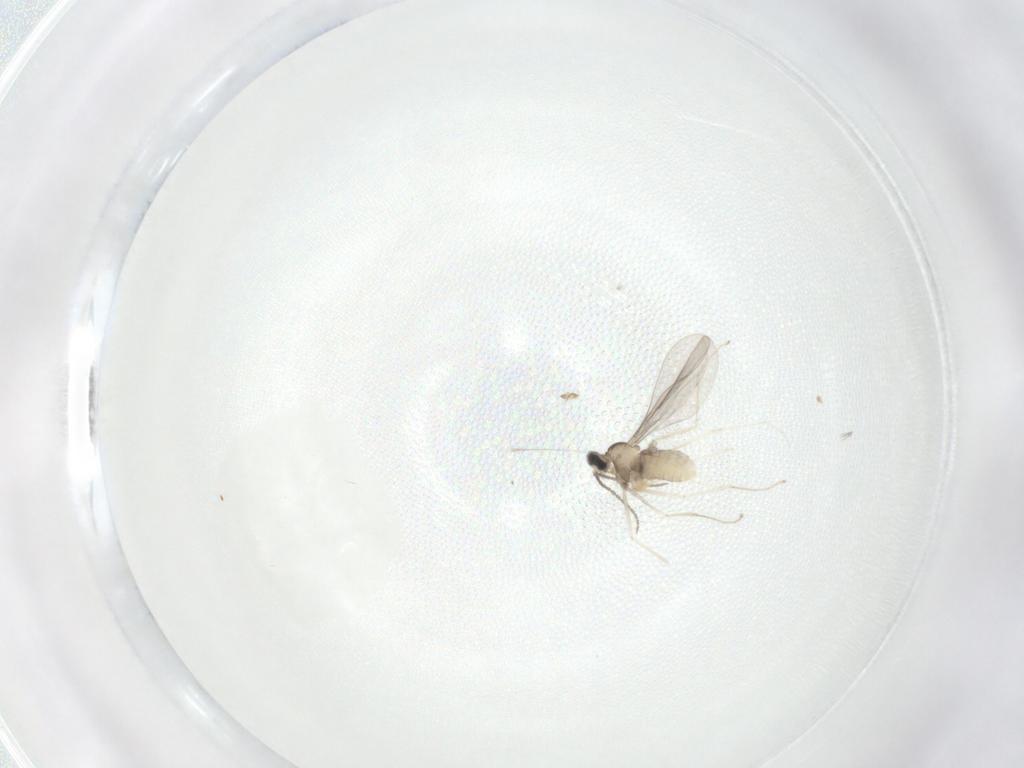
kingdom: Animalia
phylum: Arthropoda
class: Insecta
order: Diptera
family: Ceratopogonidae
